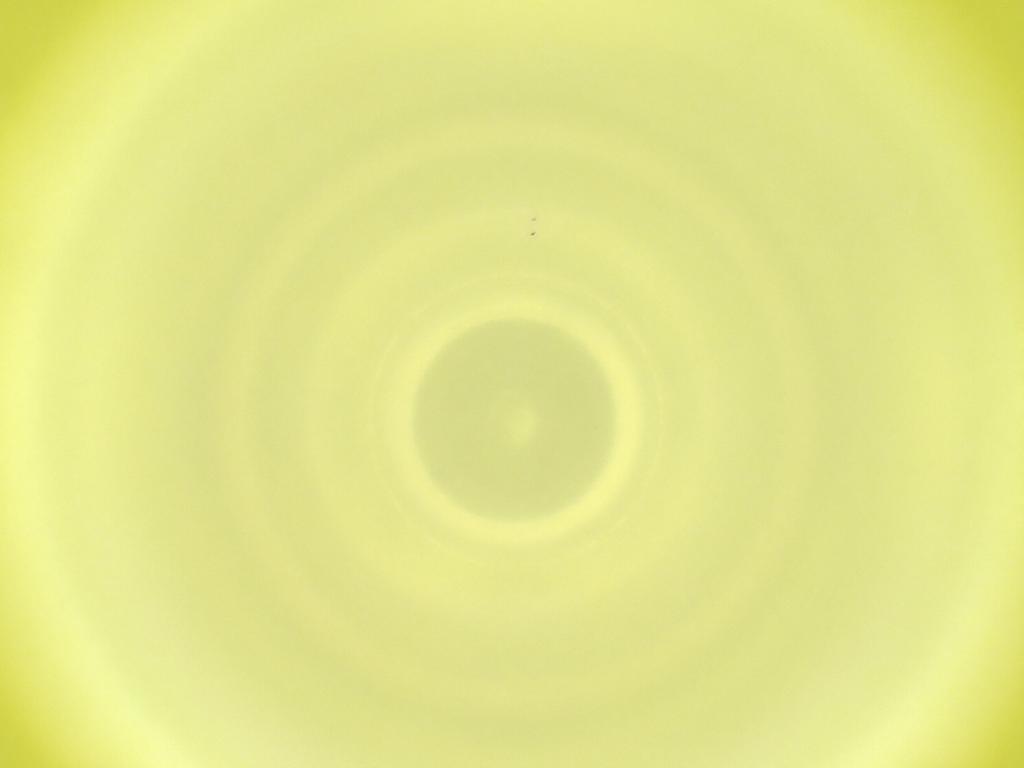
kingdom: Animalia
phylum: Arthropoda
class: Insecta
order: Diptera
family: Cecidomyiidae
